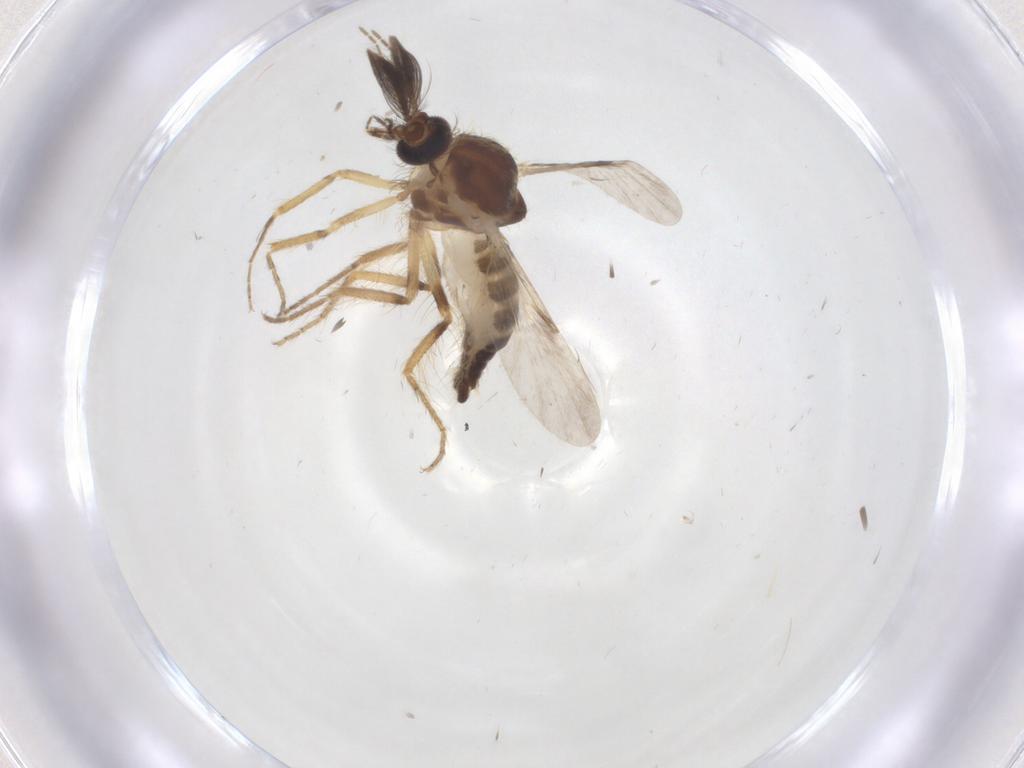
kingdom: Animalia
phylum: Arthropoda
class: Insecta
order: Diptera
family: Ceratopogonidae
